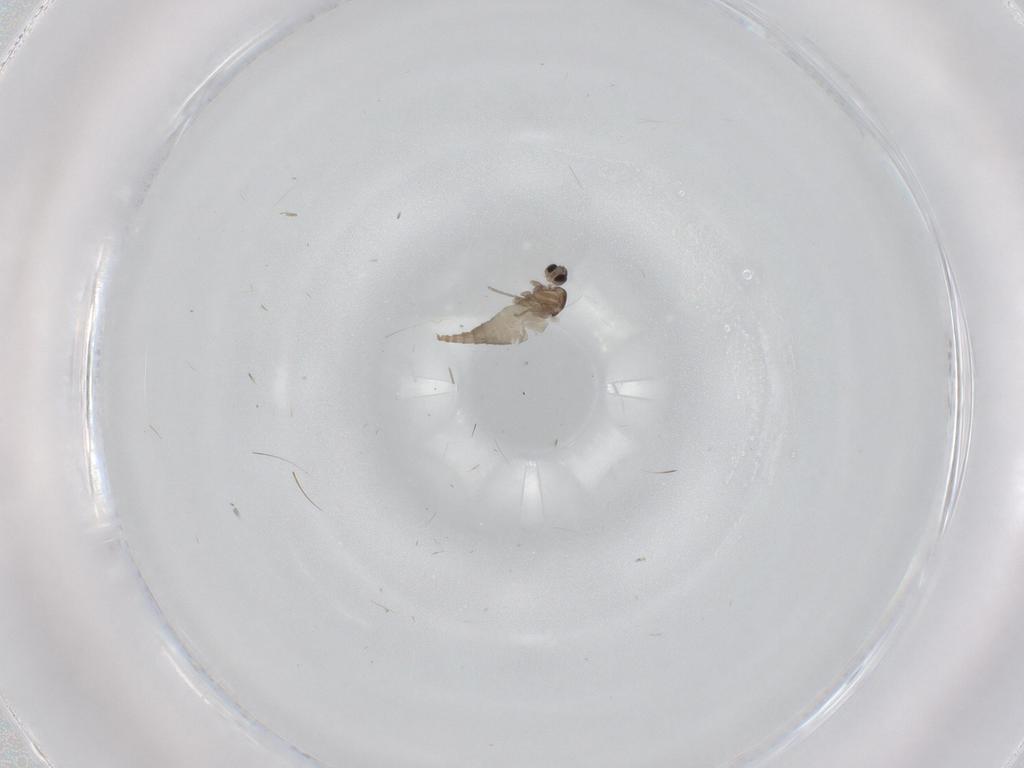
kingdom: Animalia
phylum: Arthropoda
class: Insecta
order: Diptera
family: Cecidomyiidae
